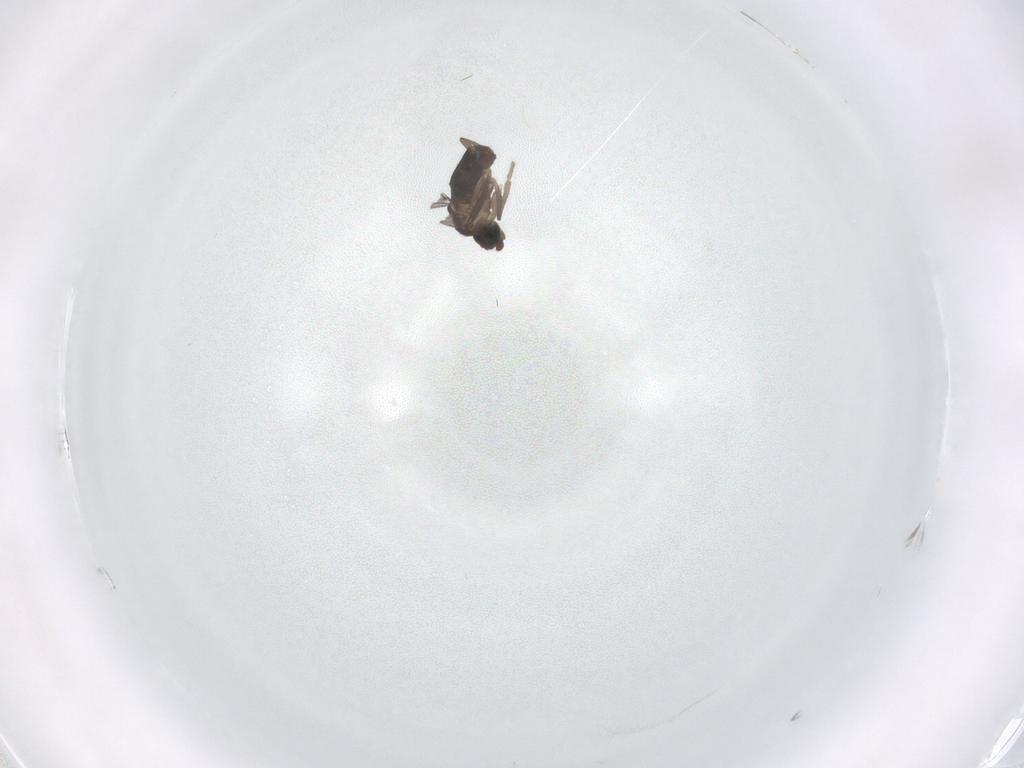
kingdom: Animalia
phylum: Arthropoda
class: Insecta
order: Diptera
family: Phoridae
